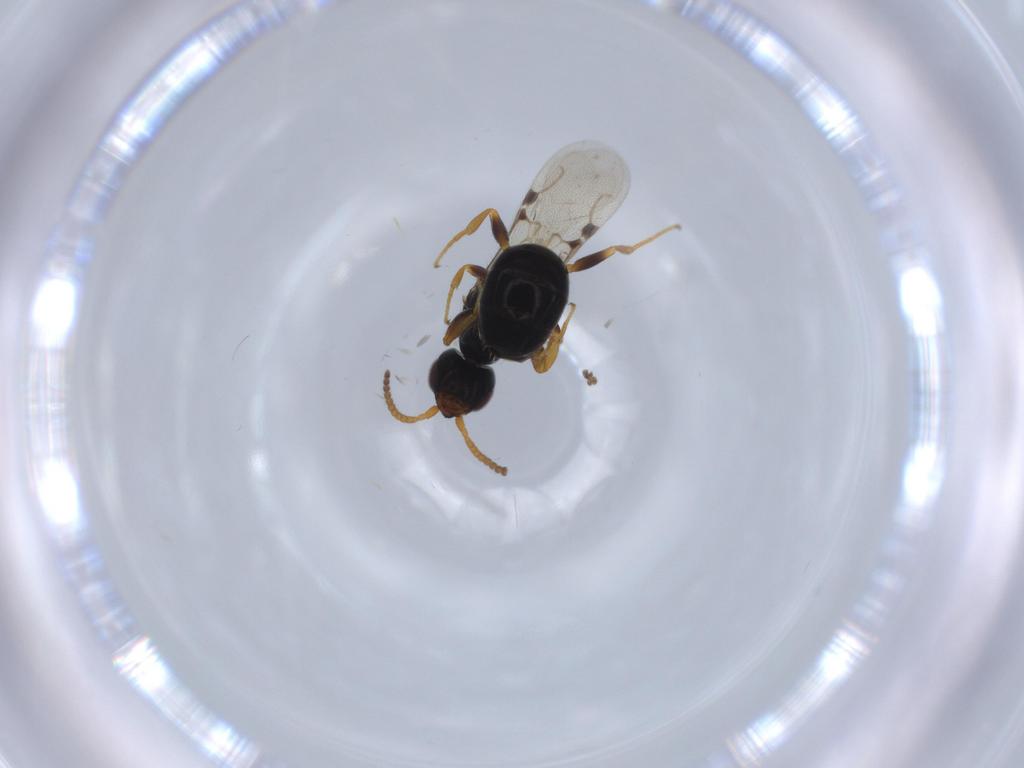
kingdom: Animalia
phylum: Arthropoda
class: Insecta
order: Hymenoptera
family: Bethylidae
